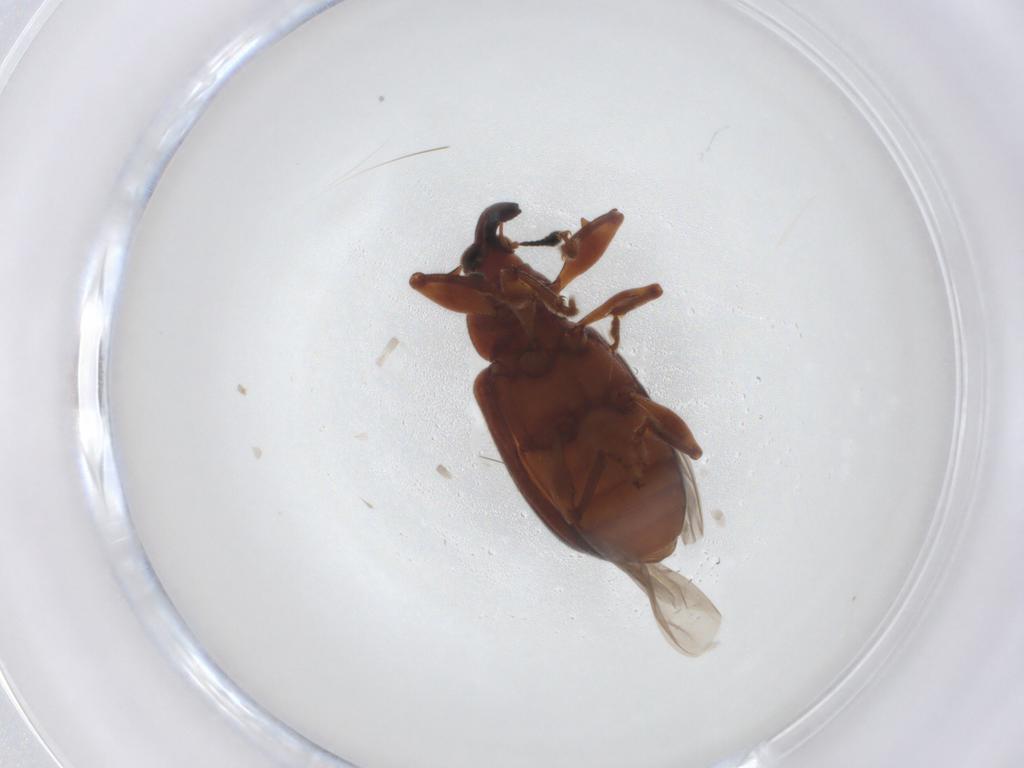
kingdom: Animalia
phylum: Arthropoda
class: Insecta
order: Coleoptera
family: Curculionidae
